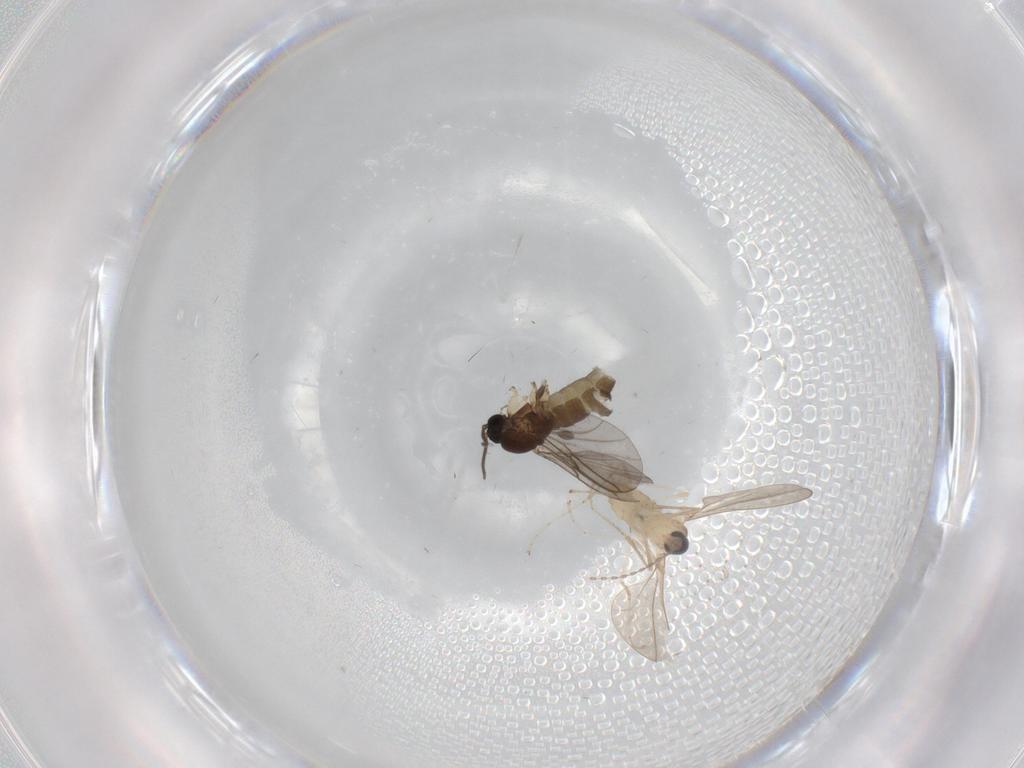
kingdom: Animalia
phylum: Arthropoda
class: Insecta
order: Diptera
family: Sciaridae
